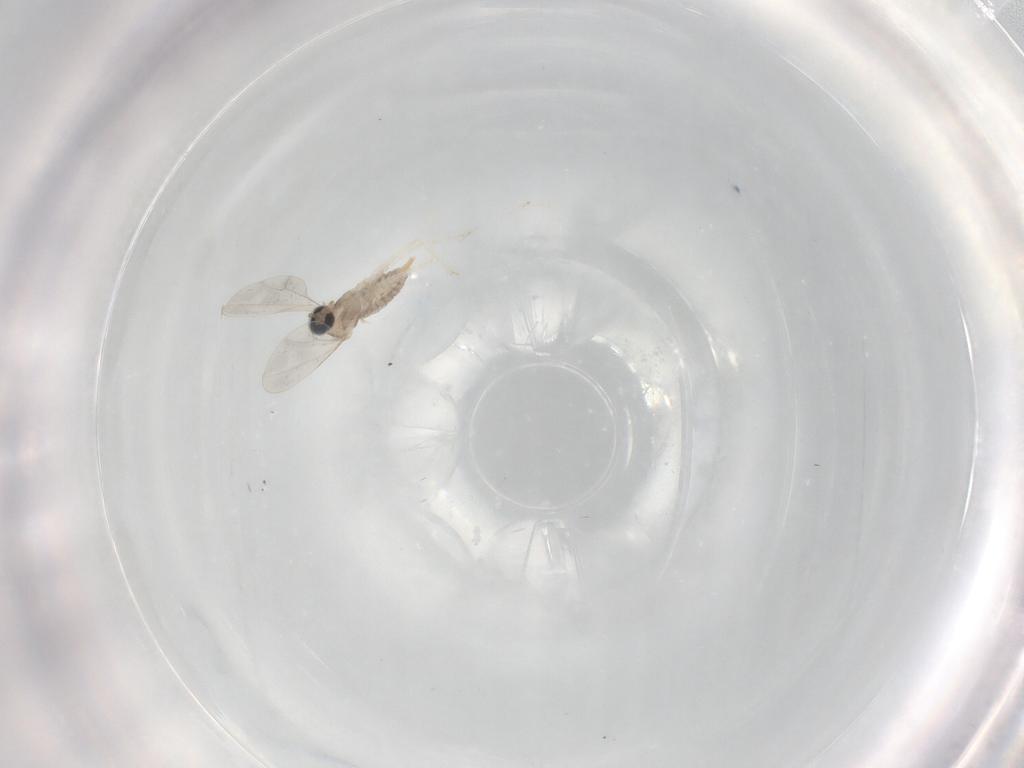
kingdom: Animalia
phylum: Arthropoda
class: Insecta
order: Diptera
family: Cecidomyiidae
